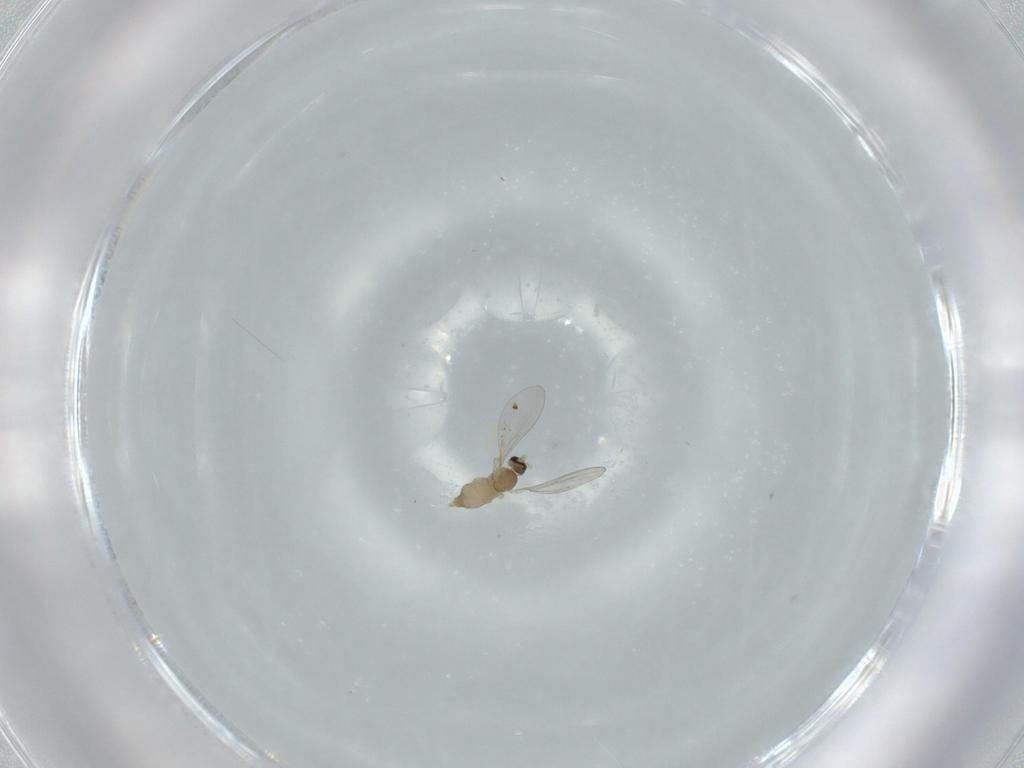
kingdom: Animalia
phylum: Arthropoda
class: Insecta
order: Diptera
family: Cecidomyiidae
